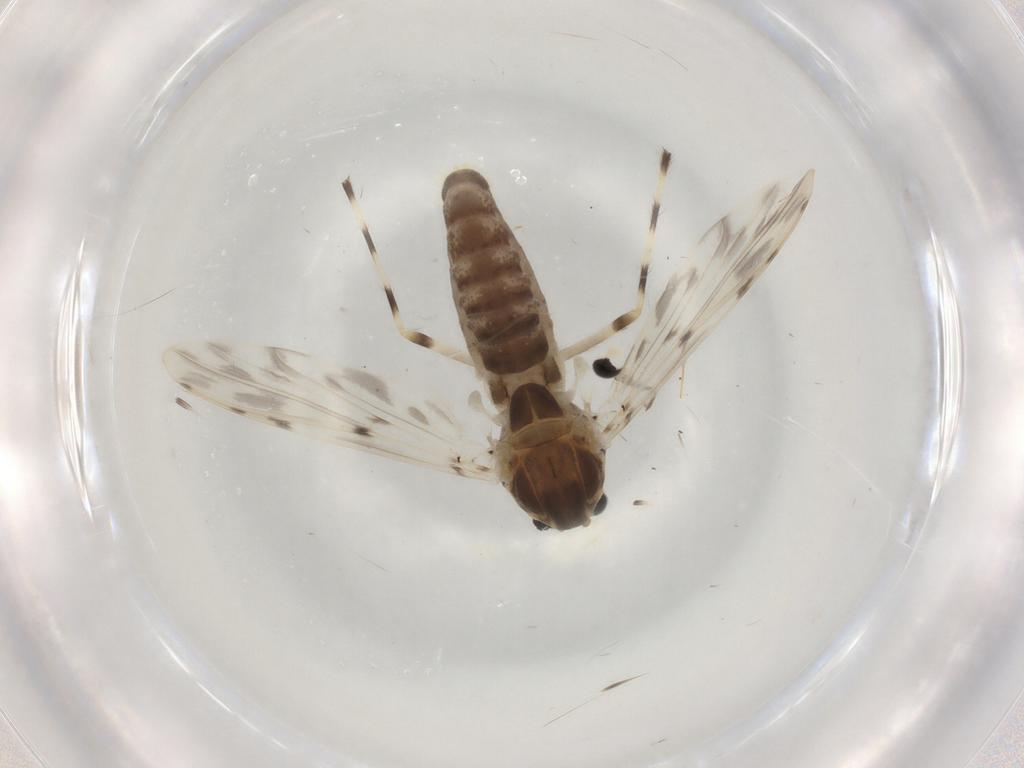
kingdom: Animalia
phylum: Arthropoda
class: Insecta
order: Diptera
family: Chironomidae
